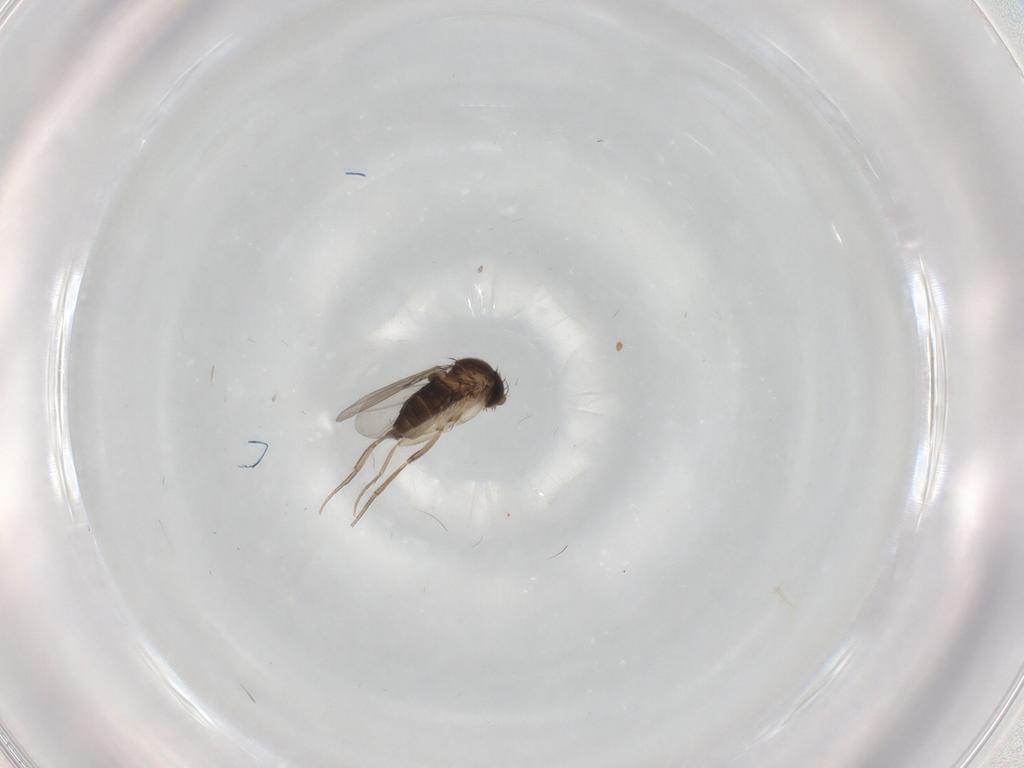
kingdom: Animalia
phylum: Arthropoda
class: Insecta
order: Diptera
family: Phoridae
